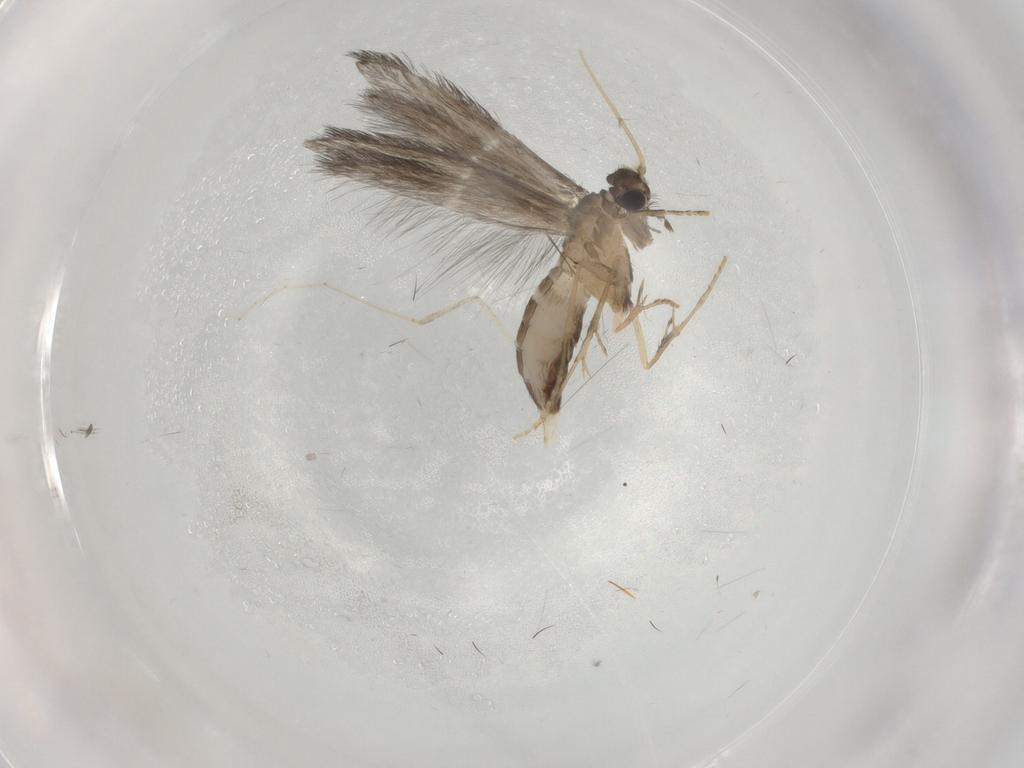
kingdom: Animalia
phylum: Arthropoda
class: Insecta
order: Trichoptera
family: Hydroptilidae
